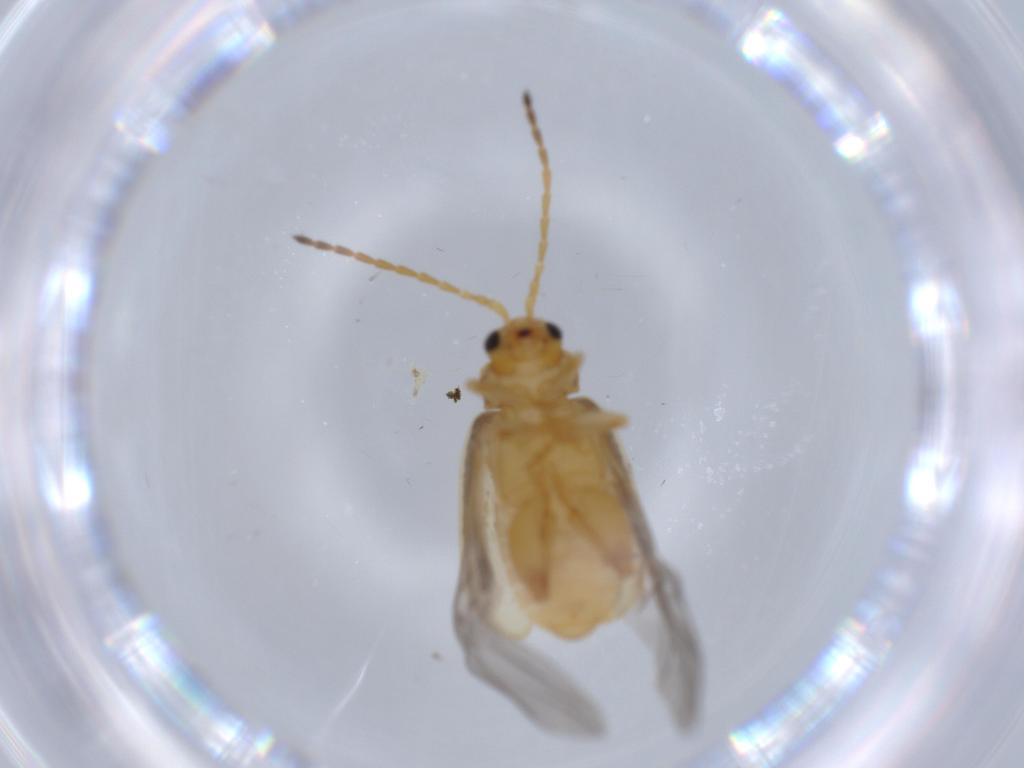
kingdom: Animalia
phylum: Arthropoda
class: Insecta
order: Coleoptera
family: Chrysomelidae
